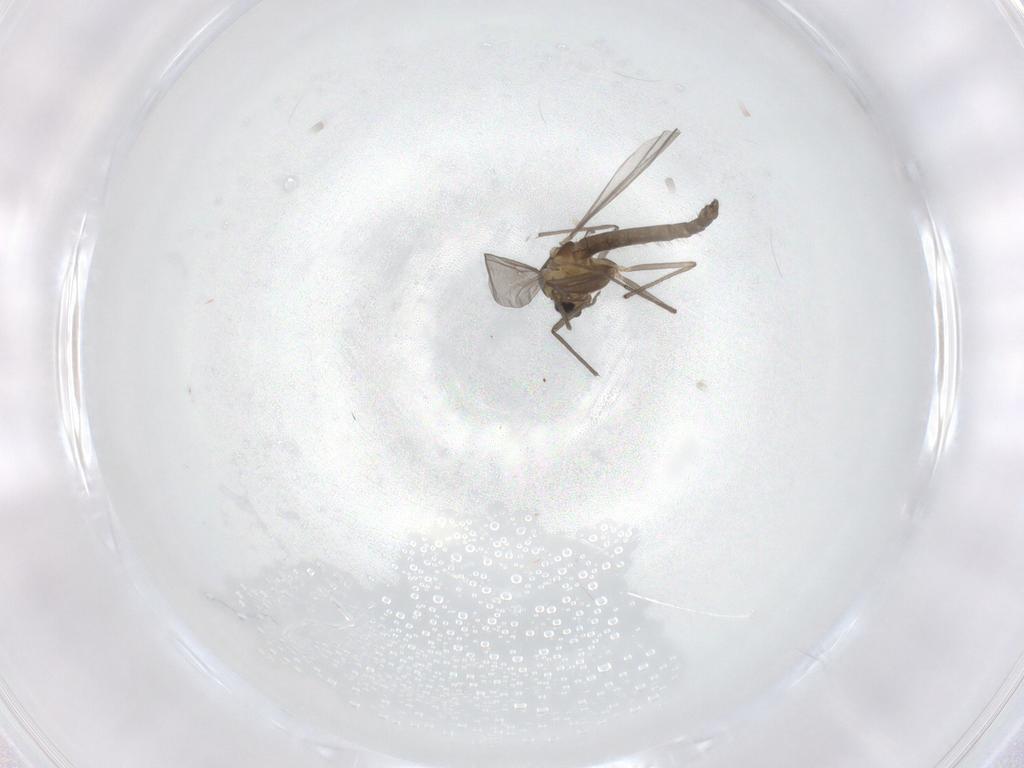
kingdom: Animalia
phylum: Arthropoda
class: Insecta
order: Diptera
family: Chironomidae
